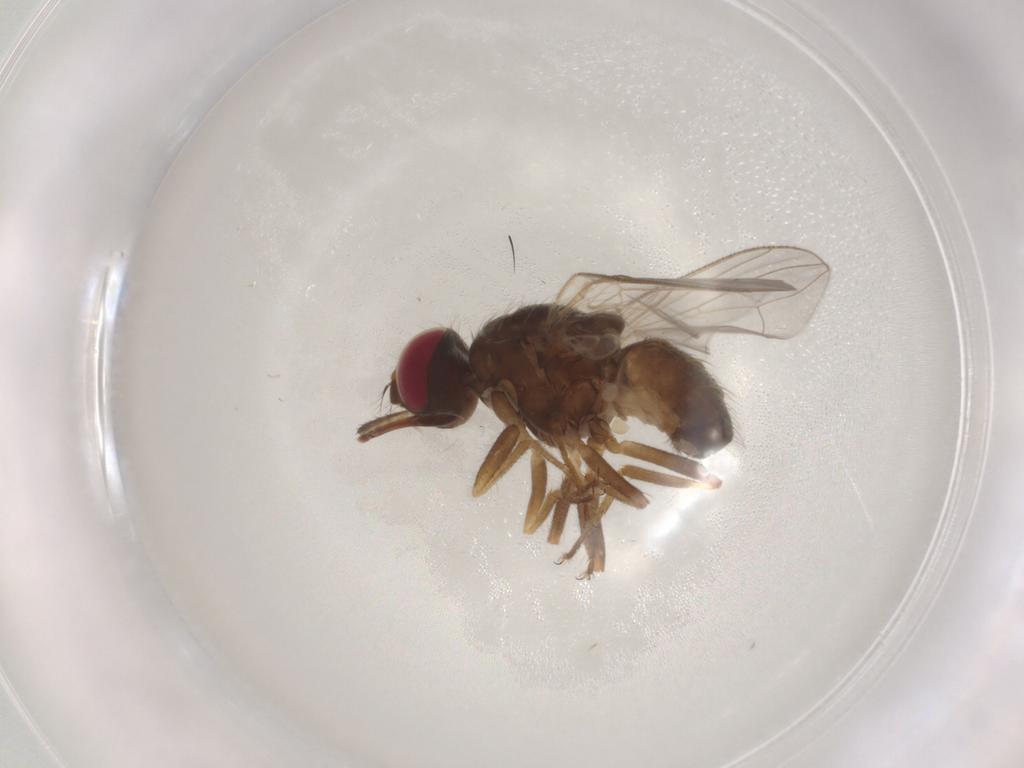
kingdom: Animalia
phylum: Arthropoda
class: Insecta
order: Diptera
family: Muscidae
